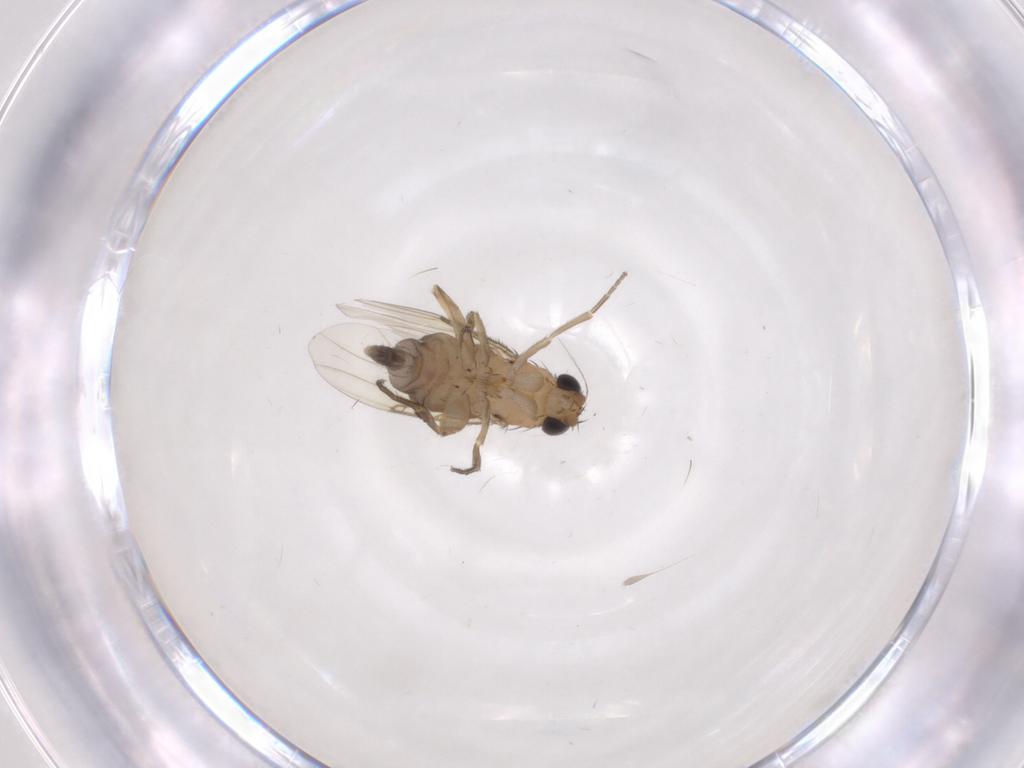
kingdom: Animalia
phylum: Arthropoda
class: Insecta
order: Diptera
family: Phoridae
